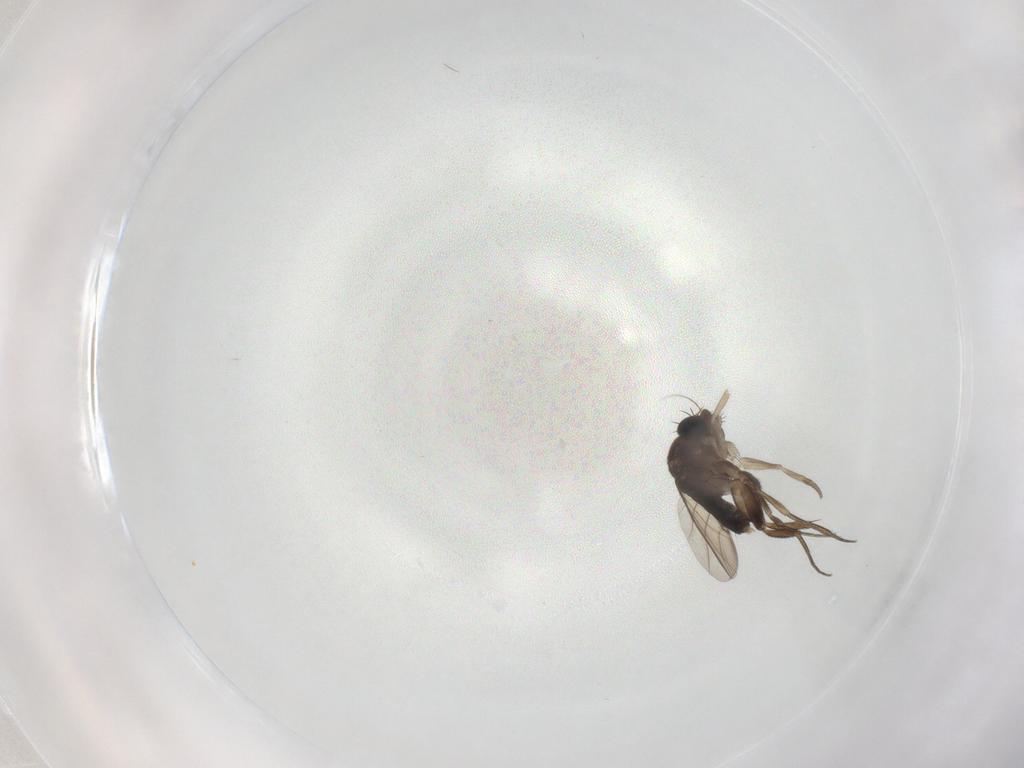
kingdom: Animalia
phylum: Arthropoda
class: Insecta
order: Diptera
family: Phoridae
